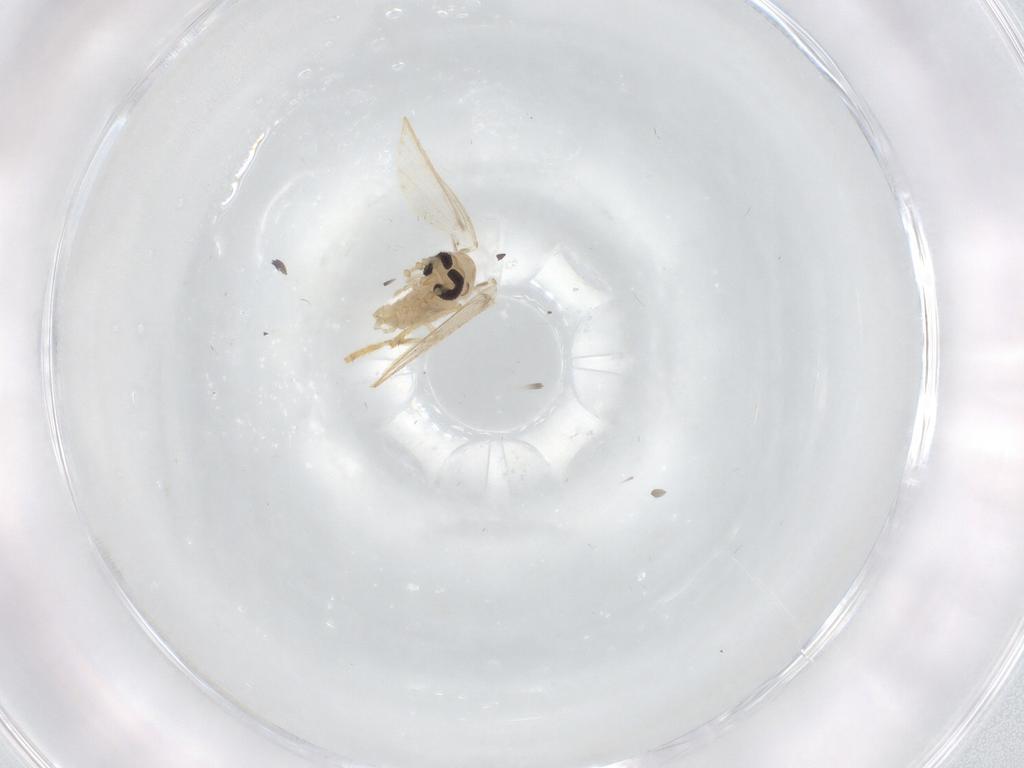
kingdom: Animalia
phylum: Arthropoda
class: Insecta
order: Diptera
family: Psychodidae
